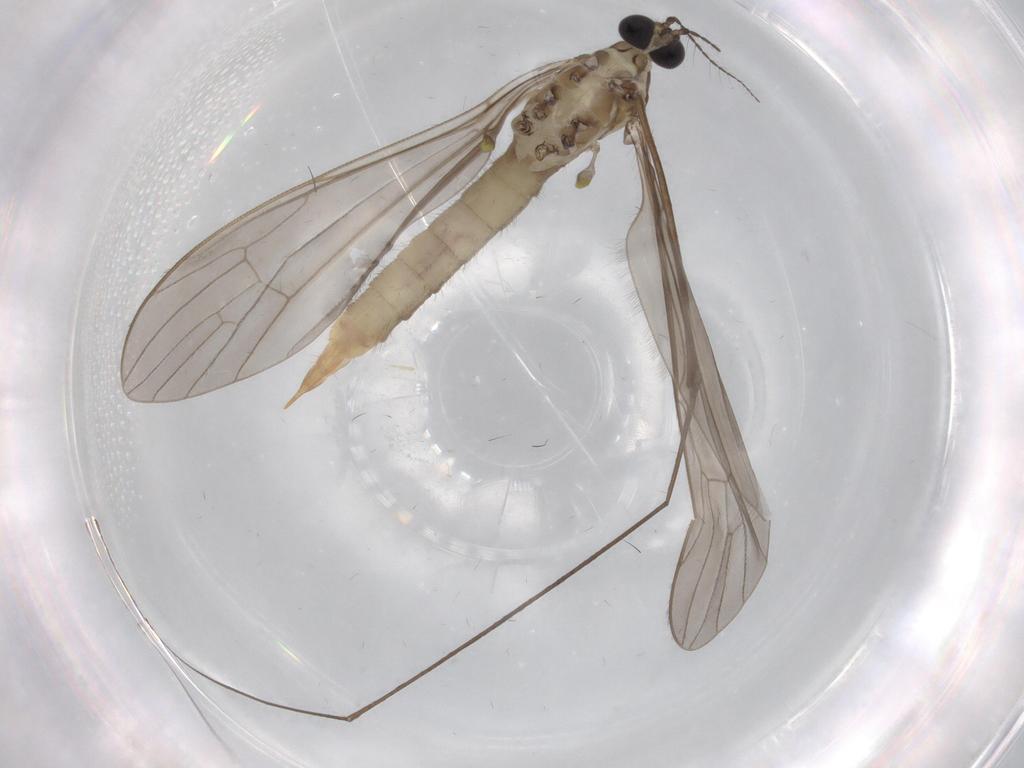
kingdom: Animalia
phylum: Arthropoda
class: Insecta
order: Diptera
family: Limoniidae
